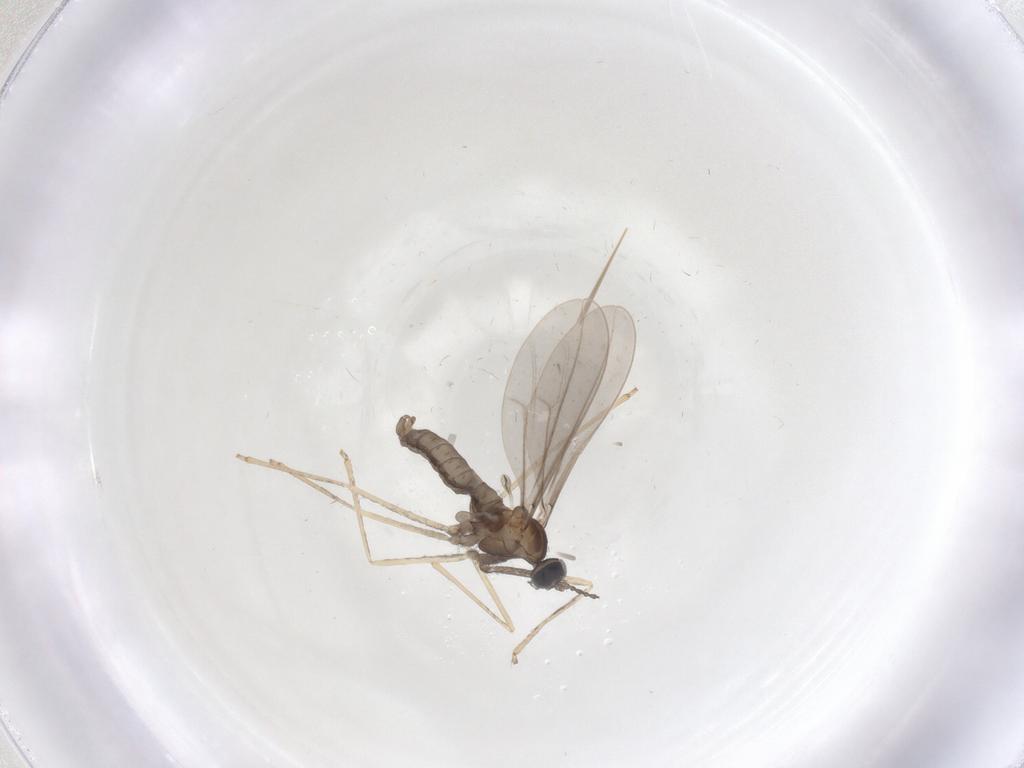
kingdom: Animalia
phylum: Arthropoda
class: Insecta
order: Diptera
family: Cecidomyiidae
